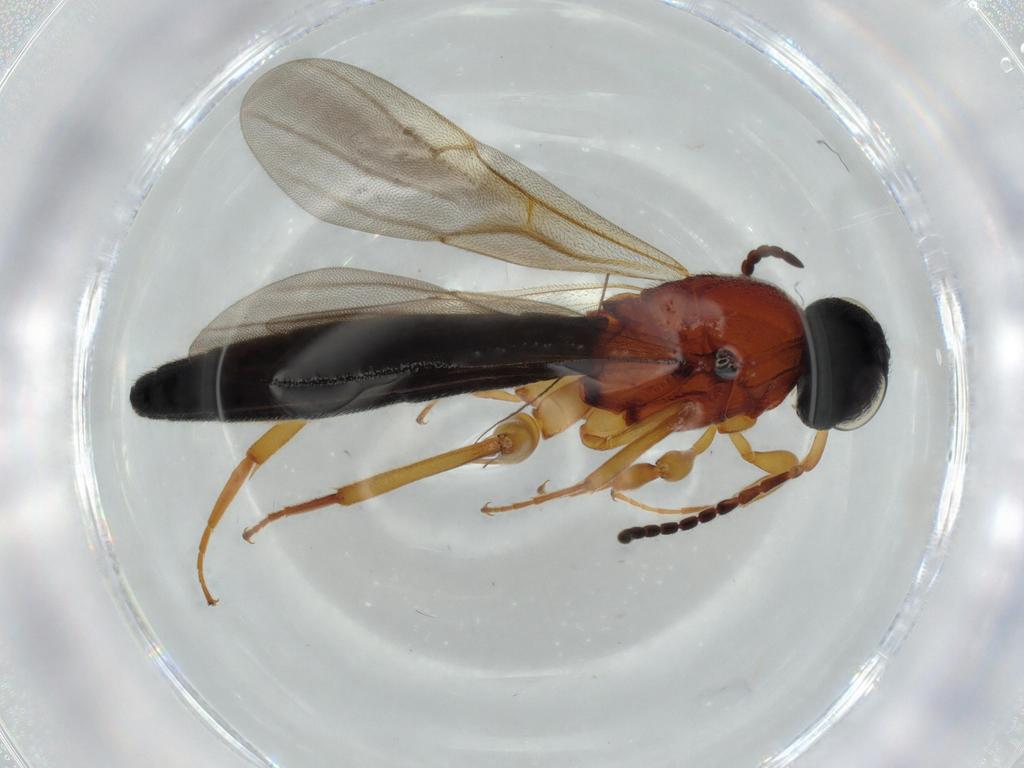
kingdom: Animalia
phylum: Arthropoda
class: Insecta
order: Hymenoptera
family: Scelionidae
